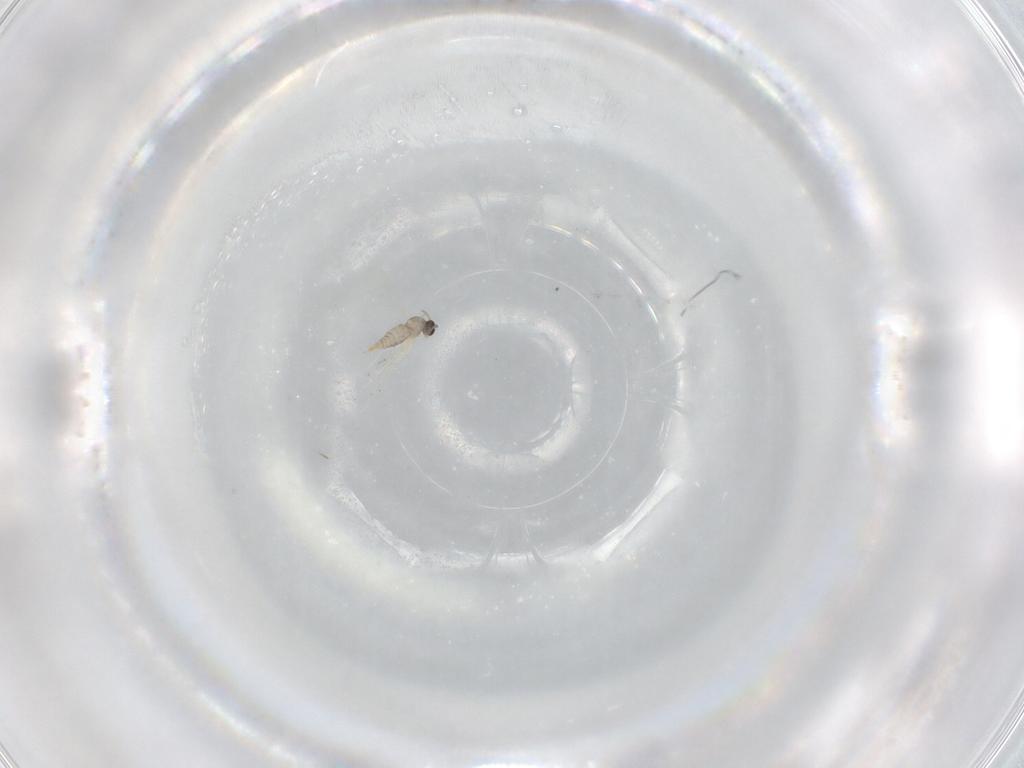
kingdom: Animalia
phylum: Arthropoda
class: Insecta
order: Diptera
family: Cecidomyiidae
